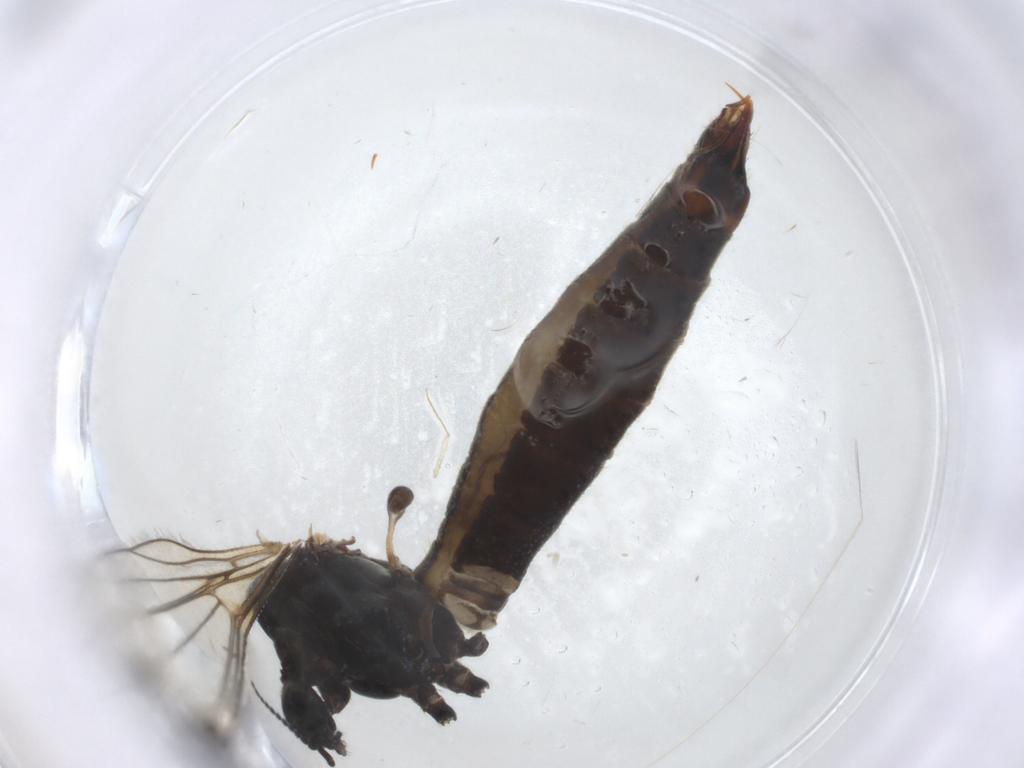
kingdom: Animalia
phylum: Arthropoda
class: Insecta
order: Diptera
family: Limoniidae
